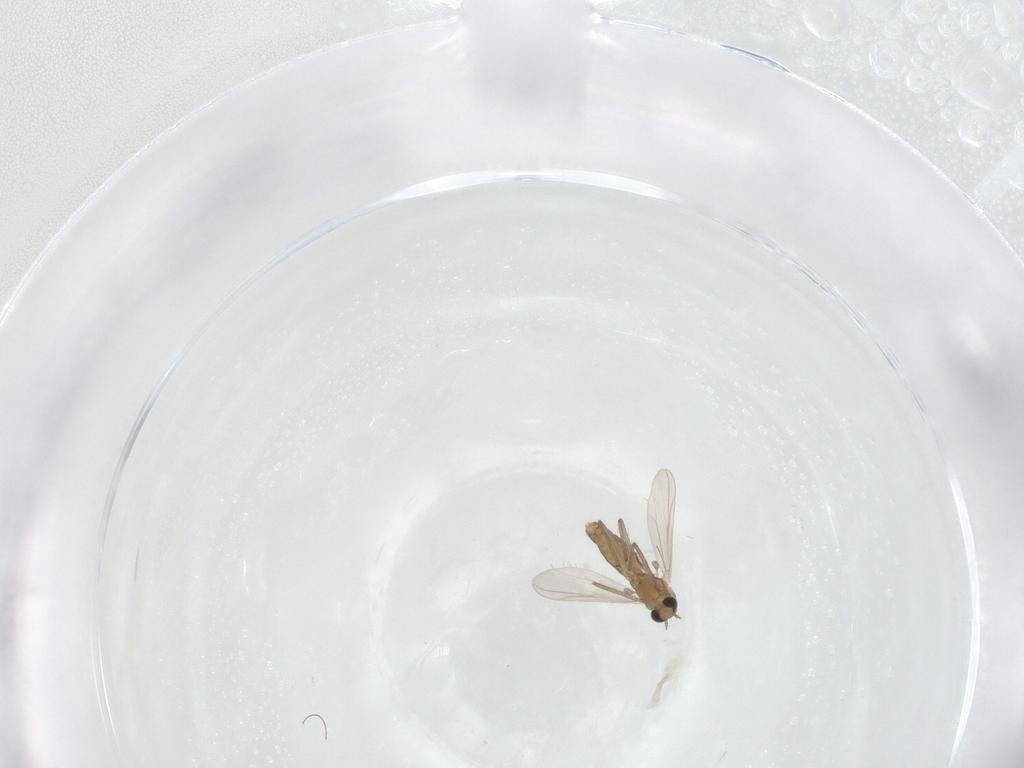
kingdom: Animalia
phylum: Arthropoda
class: Insecta
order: Diptera
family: Chironomidae
